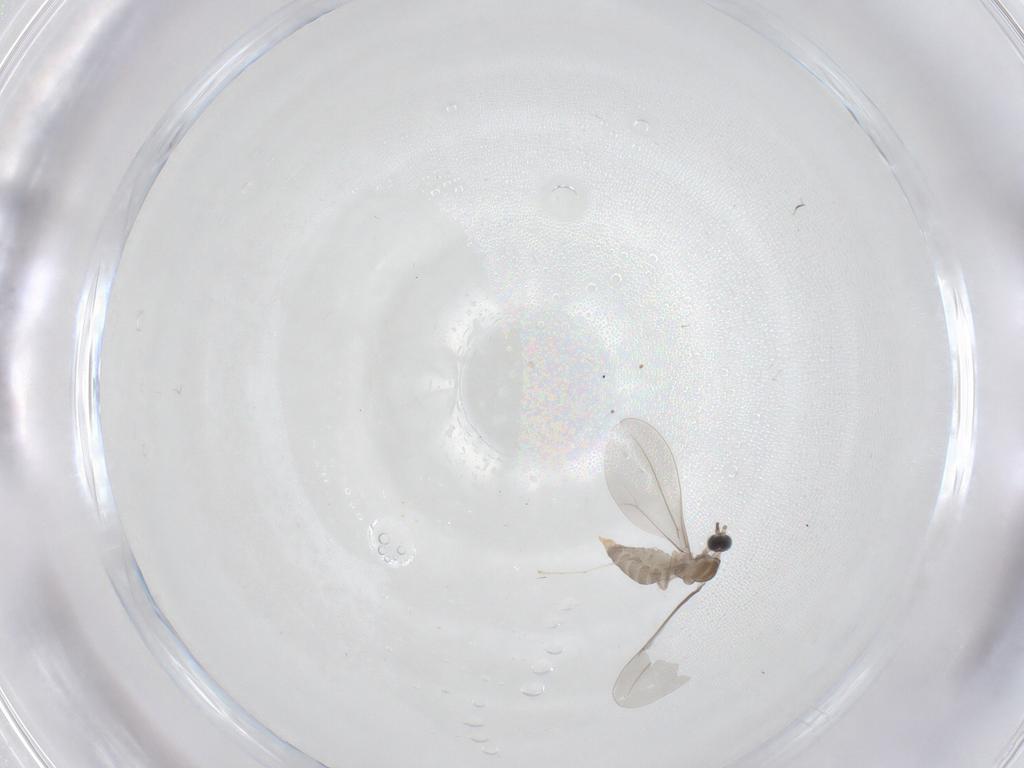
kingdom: Animalia
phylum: Arthropoda
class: Insecta
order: Diptera
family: Cecidomyiidae
